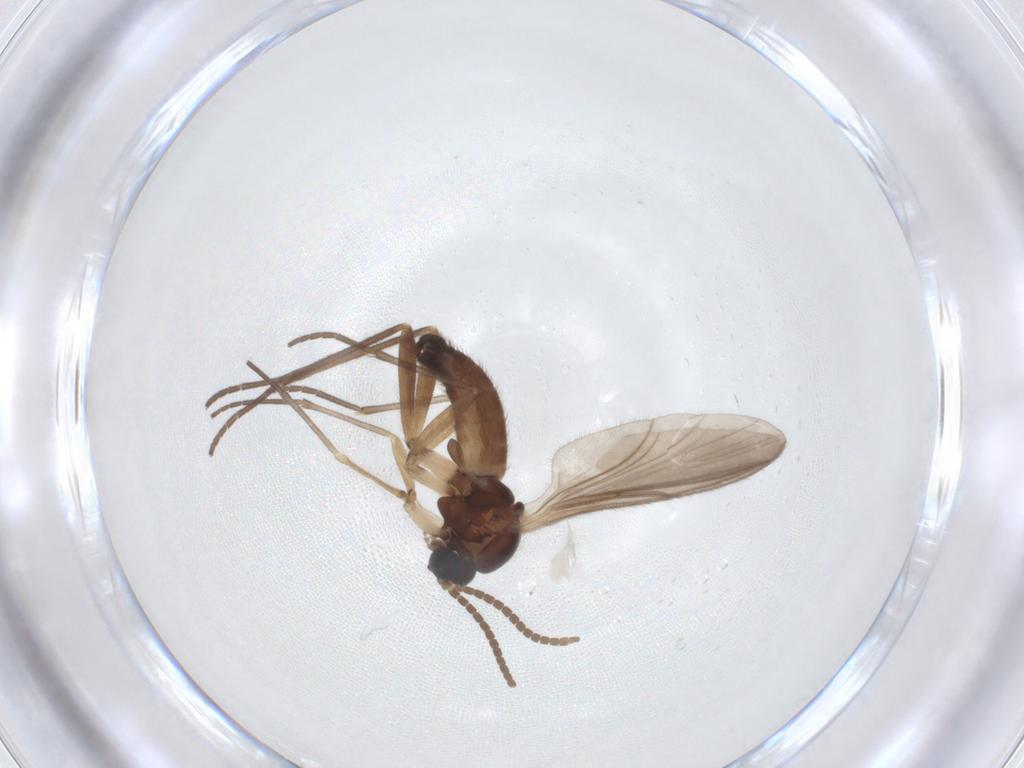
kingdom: Animalia
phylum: Arthropoda
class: Insecta
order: Diptera
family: Sciaridae
